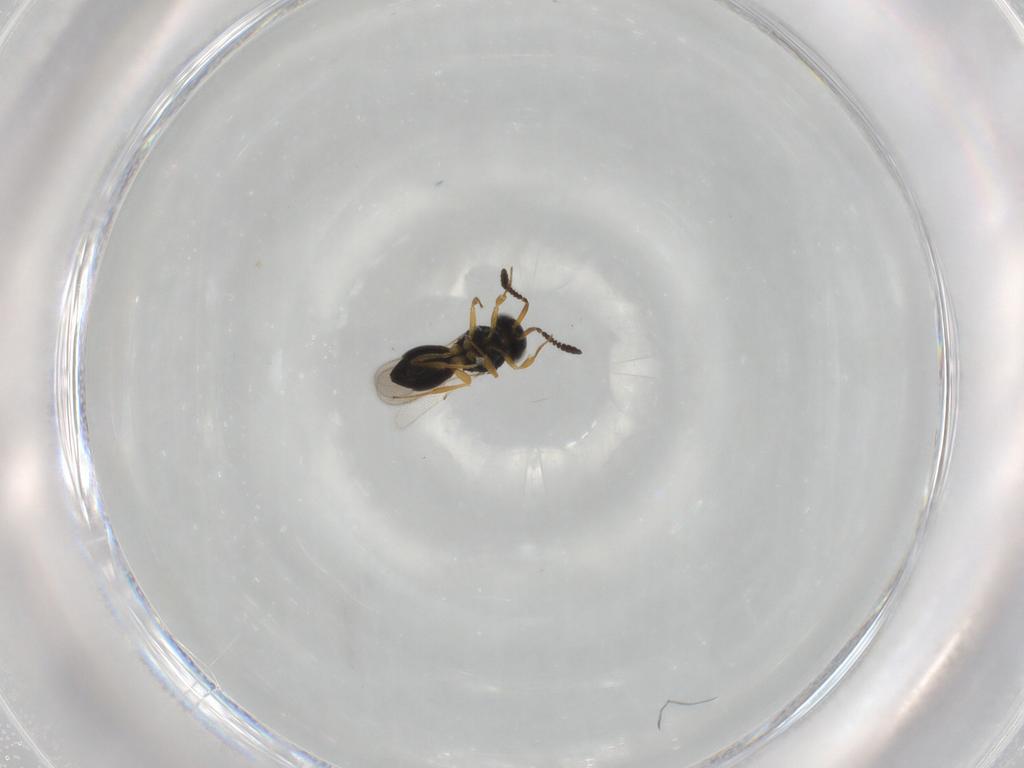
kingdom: Animalia
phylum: Arthropoda
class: Insecta
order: Hymenoptera
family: Scelionidae
